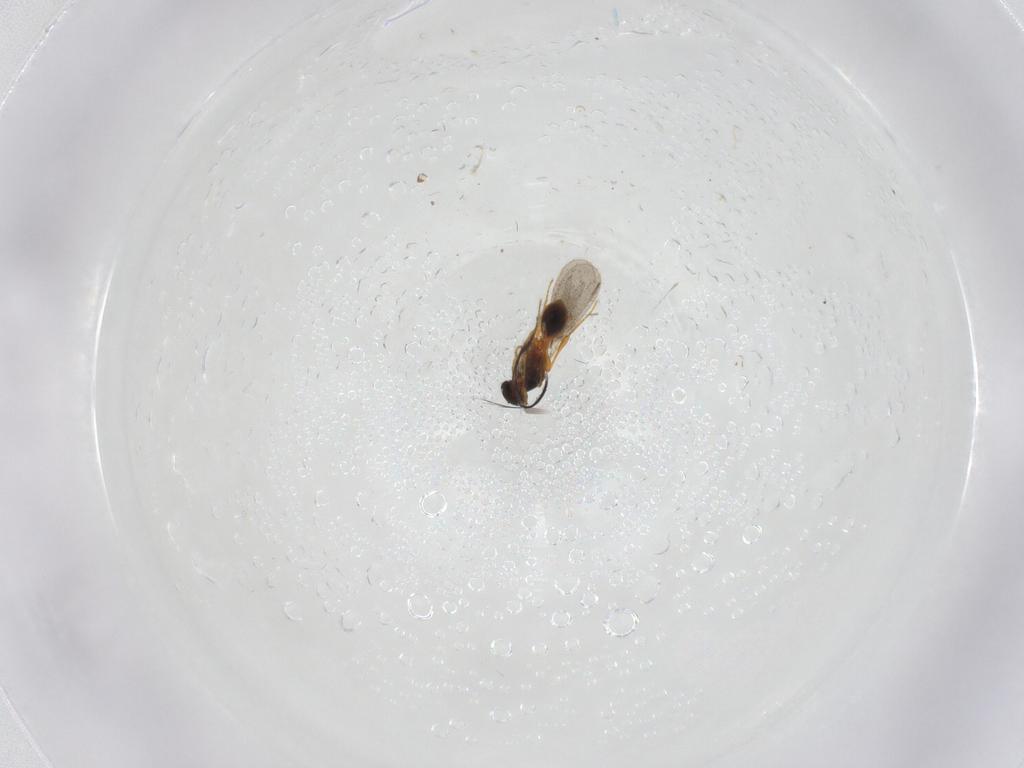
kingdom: Animalia
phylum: Arthropoda
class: Insecta
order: Hymenoptera
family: Platygastridae
